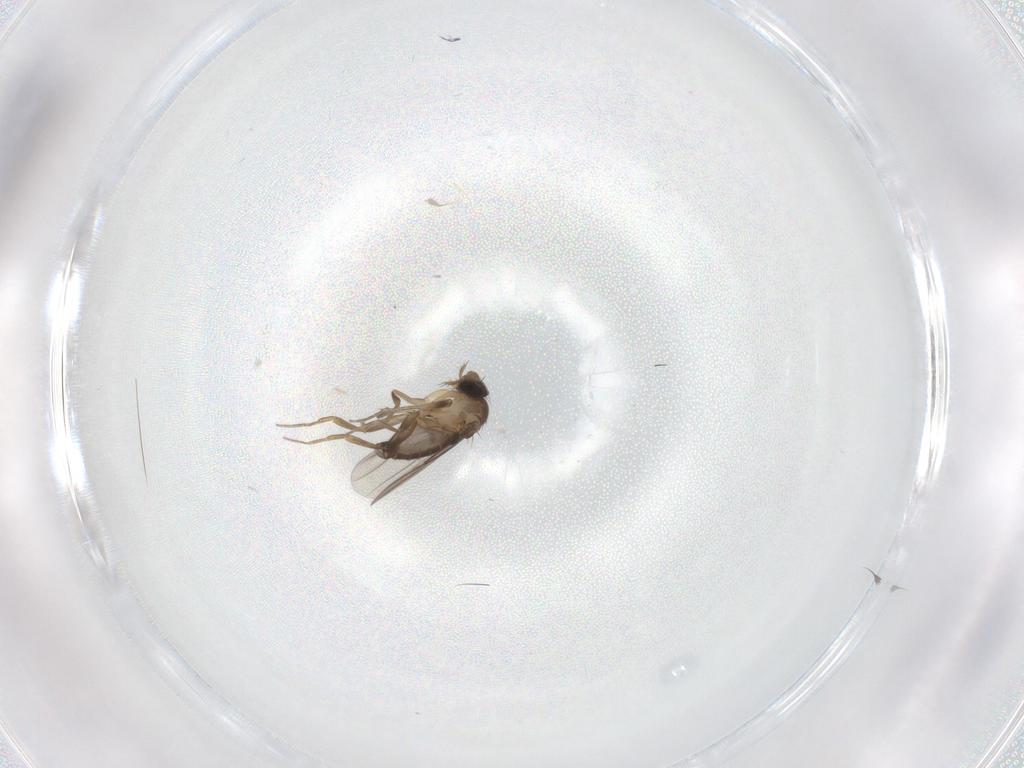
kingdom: Animalia
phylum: Arthropoda
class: Insecta
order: Diptera
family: Phoridae
